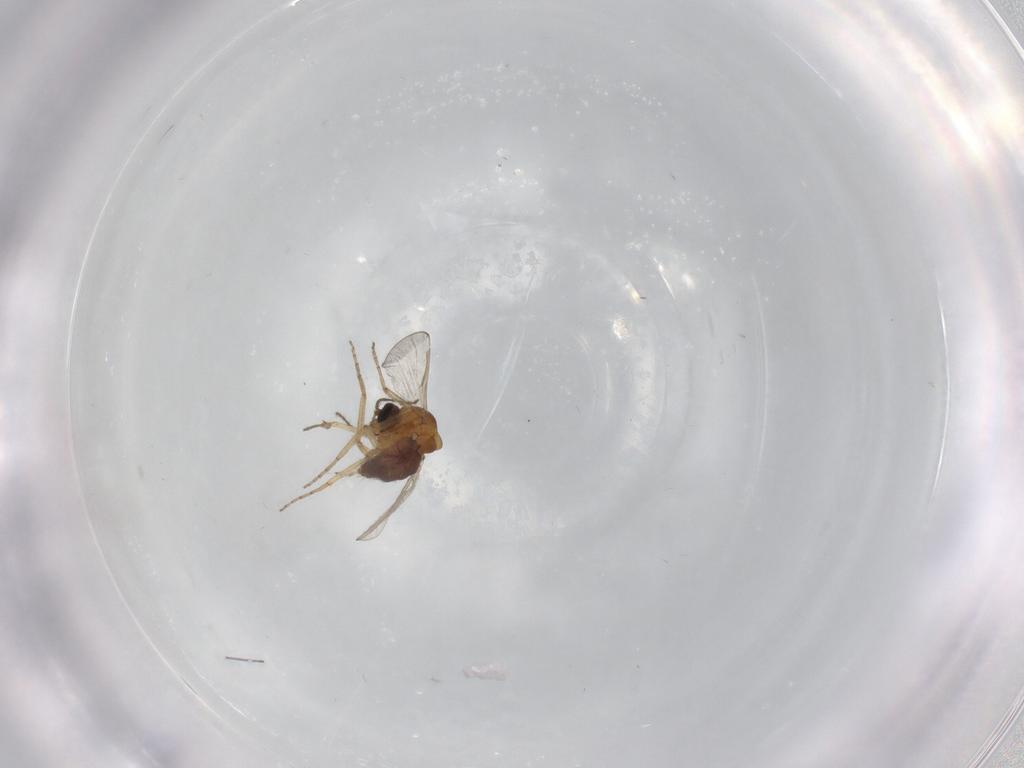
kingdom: Animalia
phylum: Arthropoda
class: Insecta
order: Diptera
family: Ceratopogonidae
